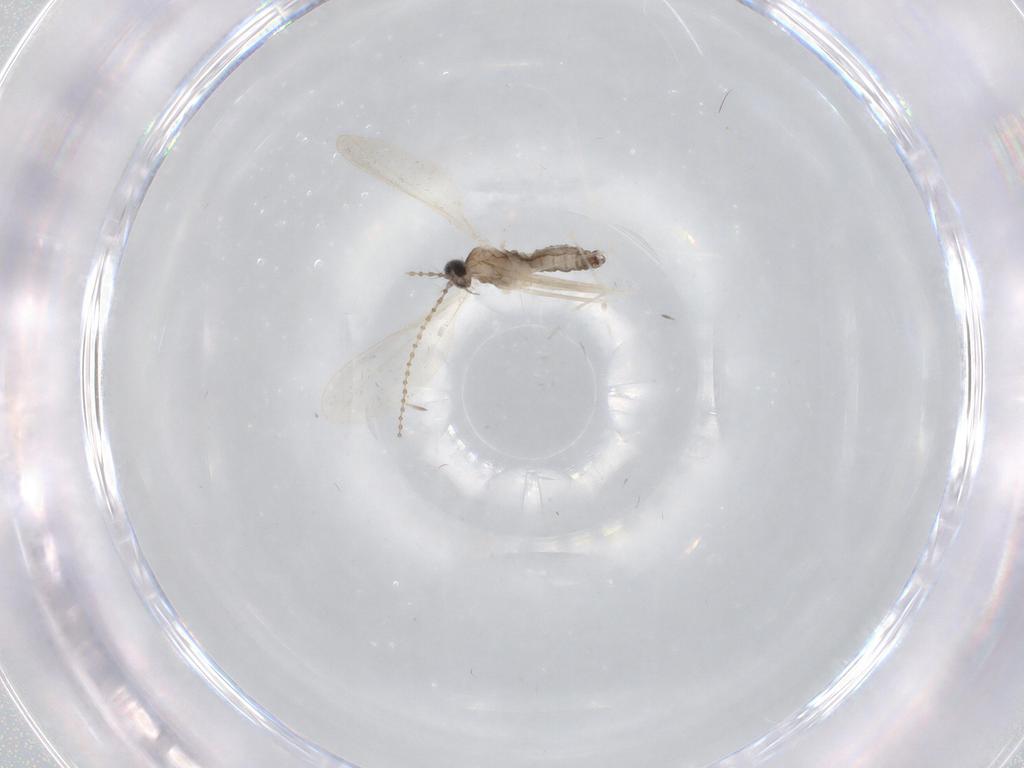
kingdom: Animalia
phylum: Arthropoda
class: Insecta
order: Diptera
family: Cecidomyiidae
